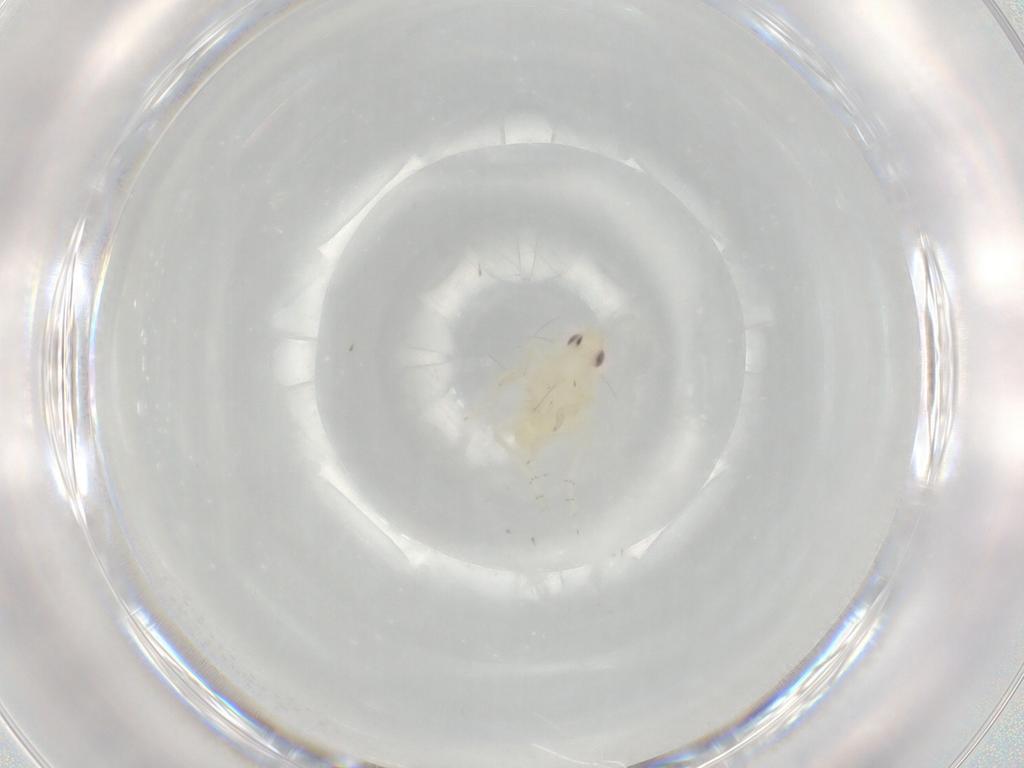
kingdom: Animalia
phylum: Arthropoda
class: Insecta
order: Hemiptera
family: Tropiduchidae
